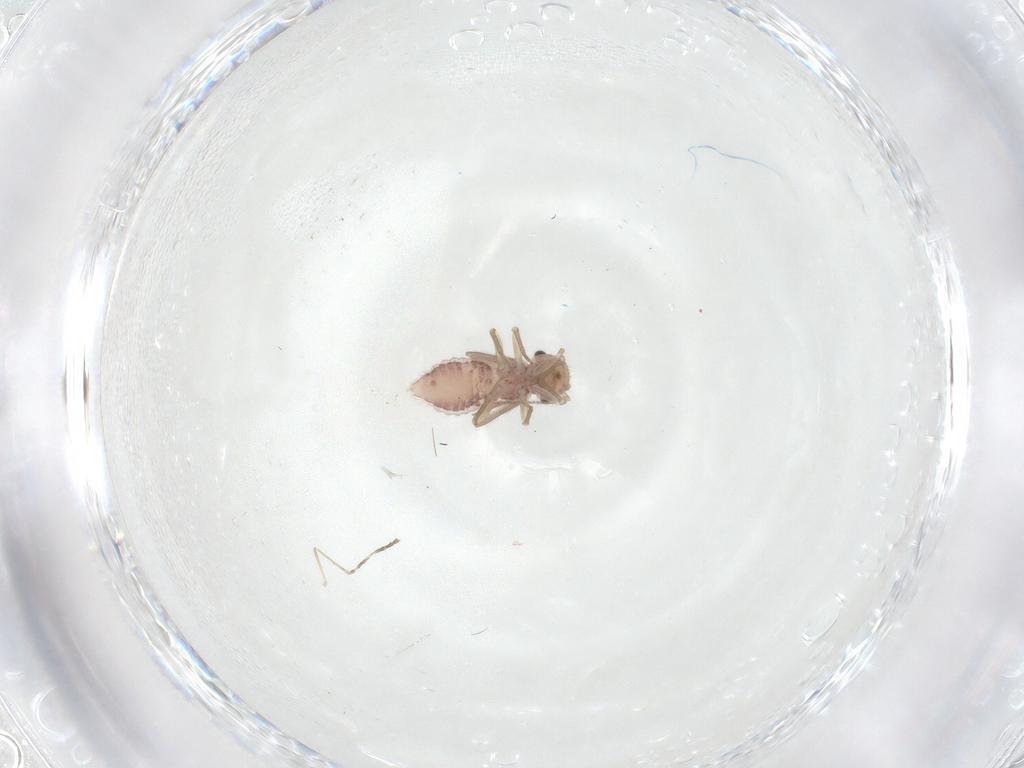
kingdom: Animalia
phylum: Arthropoda
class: Insecta
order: Psocodea
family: Ectopsocidae
